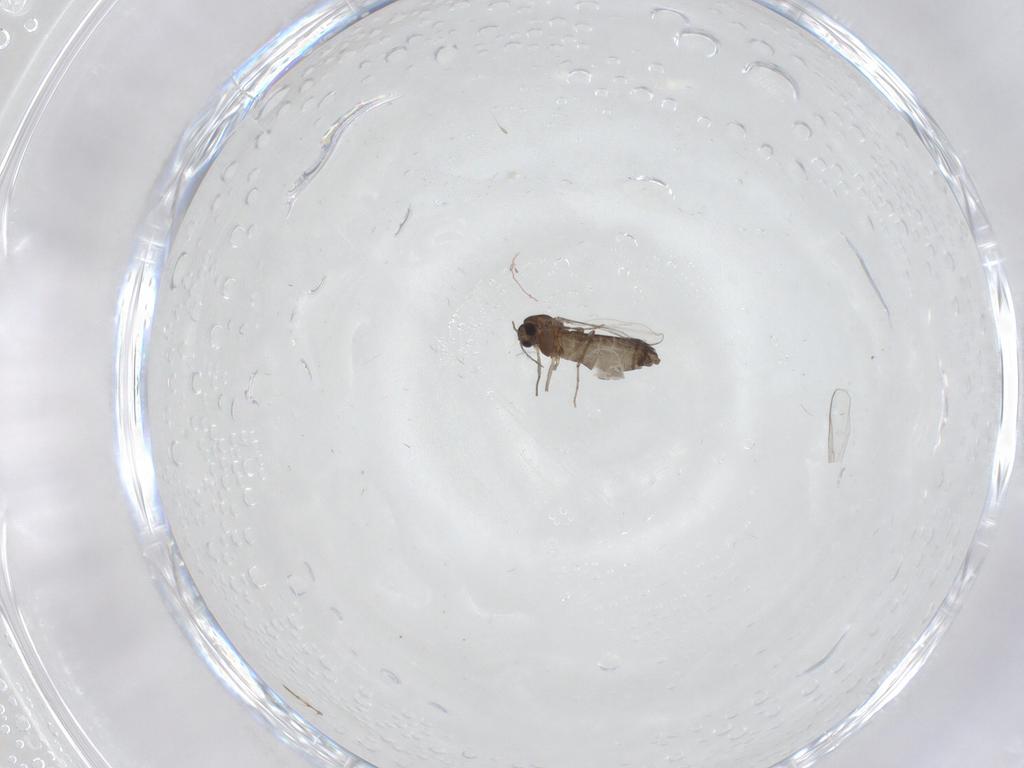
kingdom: Animalia
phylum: Arthropoda
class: Insecta
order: Diptera
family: Chironomidae
